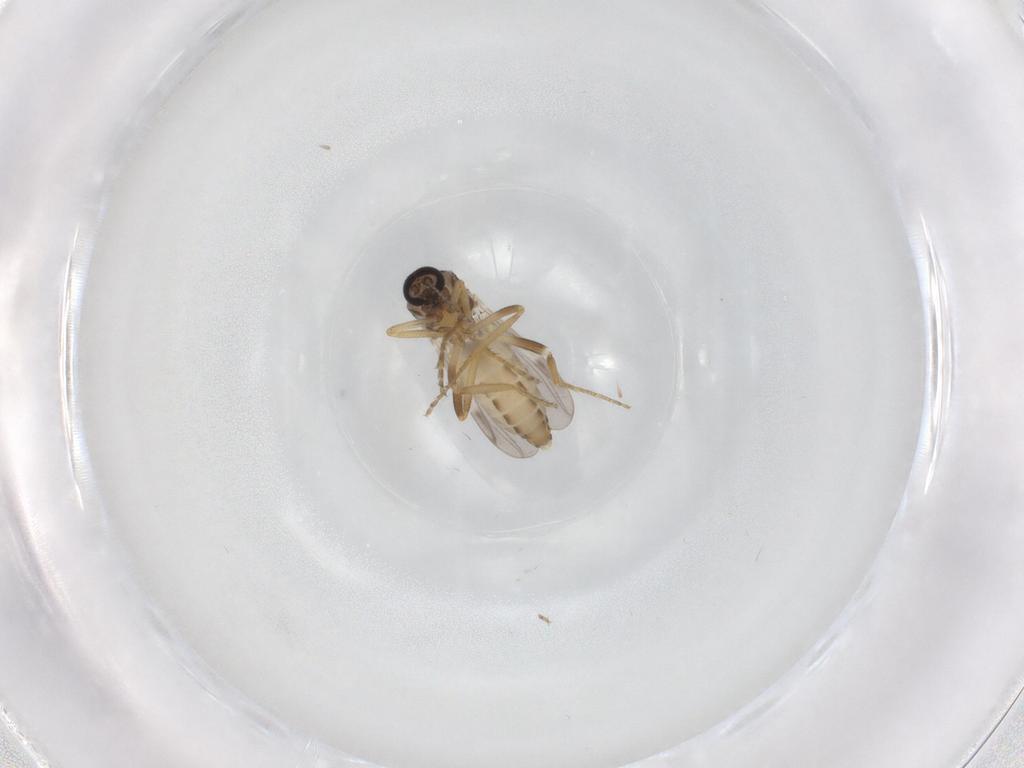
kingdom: Animalia
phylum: Arthropoda
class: Insecta
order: Diptera
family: Ceratopogonidae
